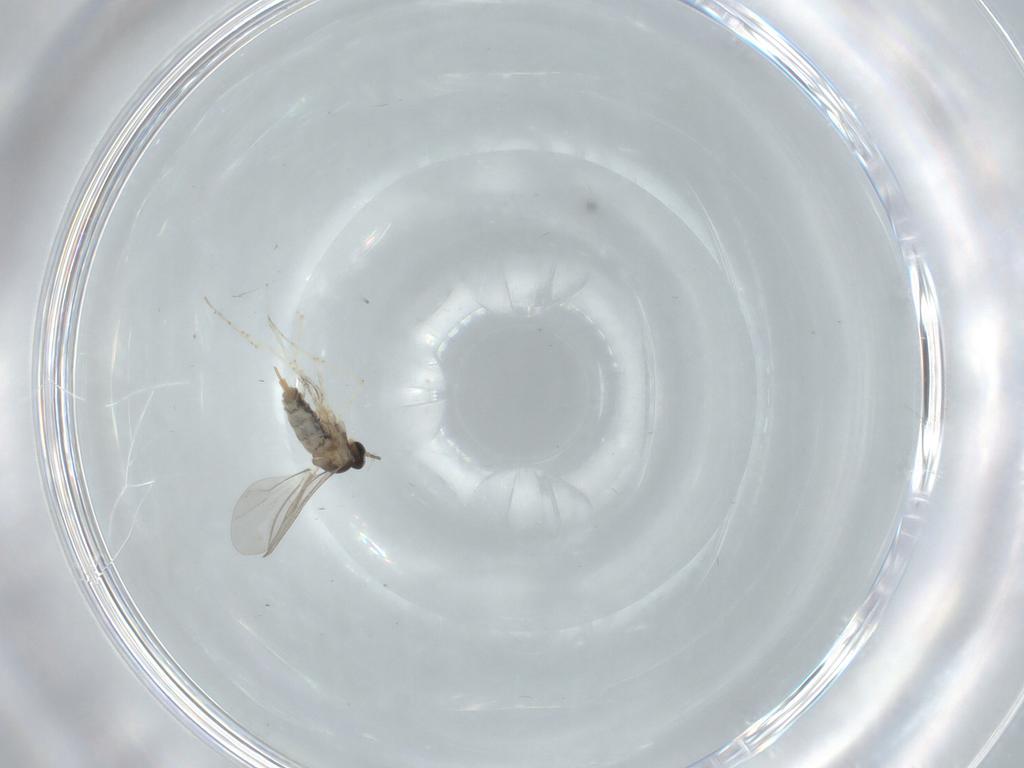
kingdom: Animalia
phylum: Arthropoda
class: Insecta
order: Diptera
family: Cecidomyiidae
